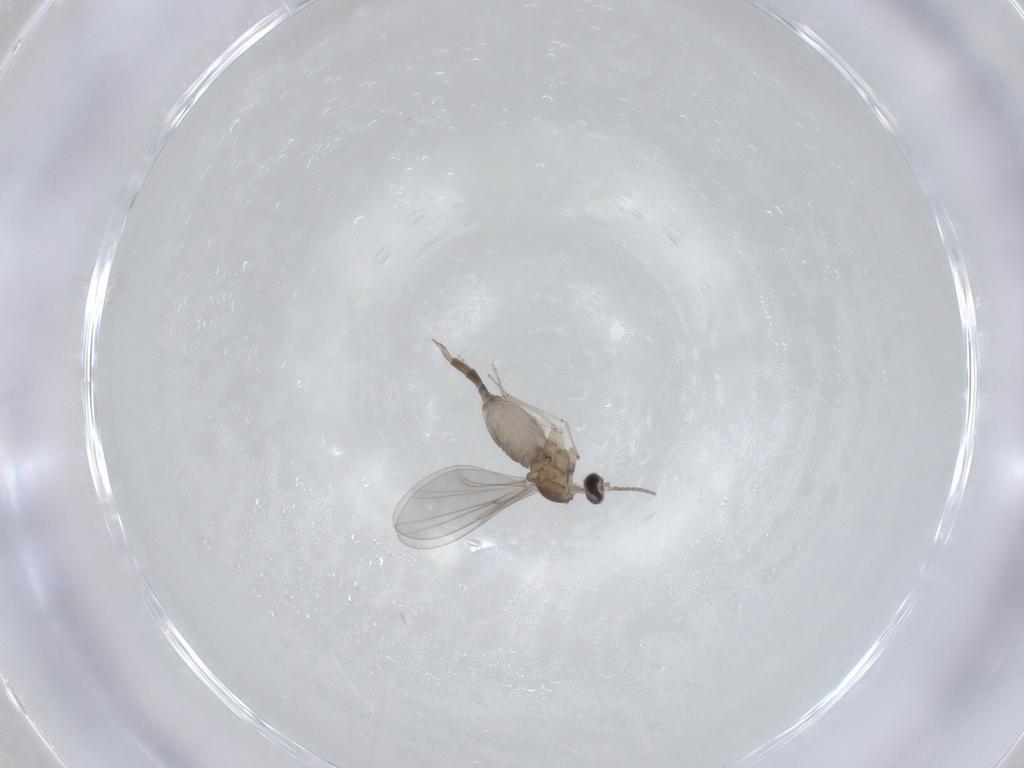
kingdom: Animalia
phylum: Arthropoda
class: Insecta
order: Diptera
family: Cecidomyiidae
